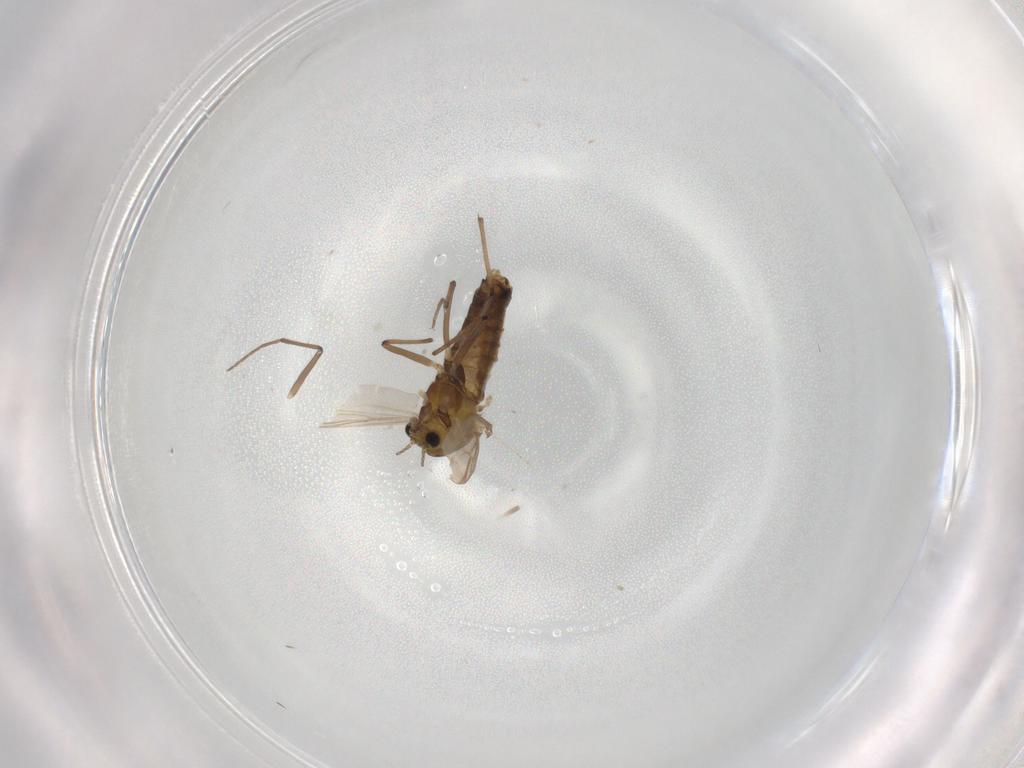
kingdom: Animalia
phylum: Arthropoda
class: Insecta
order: Diptera
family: Chironomidae
